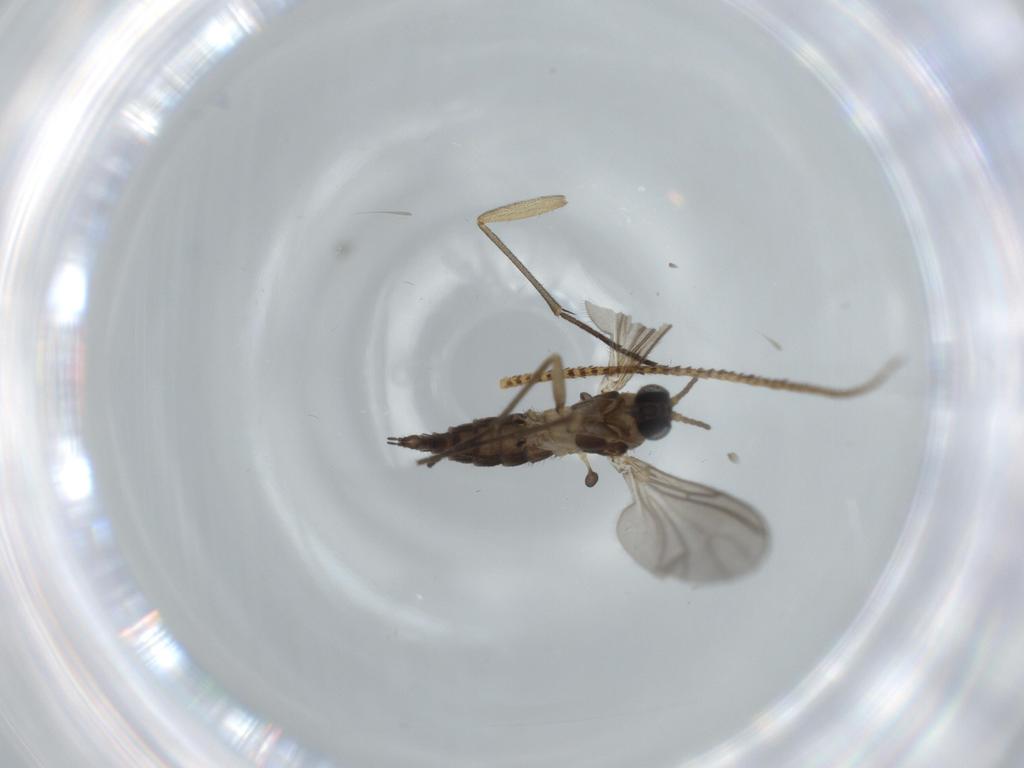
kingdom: Animalia
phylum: Arthropoda
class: Insecta
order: Diptera
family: Sciaridae
